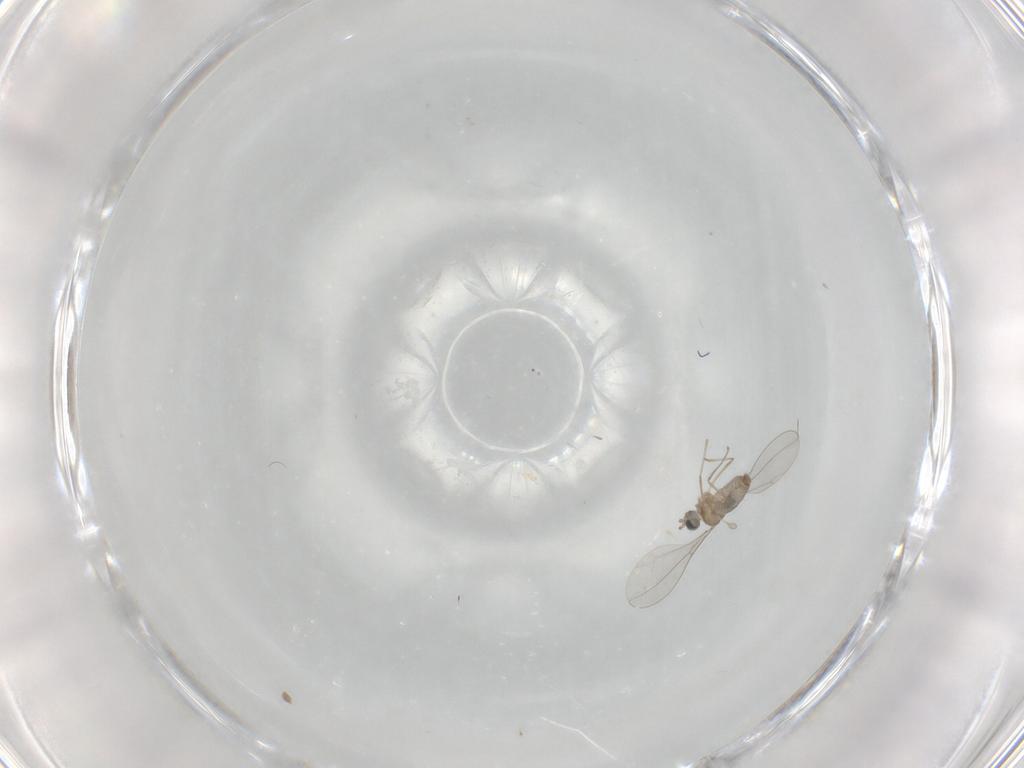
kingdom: Animalia
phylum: Arthropoda
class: Insecta
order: Diptera
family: Cecidomyiidae
